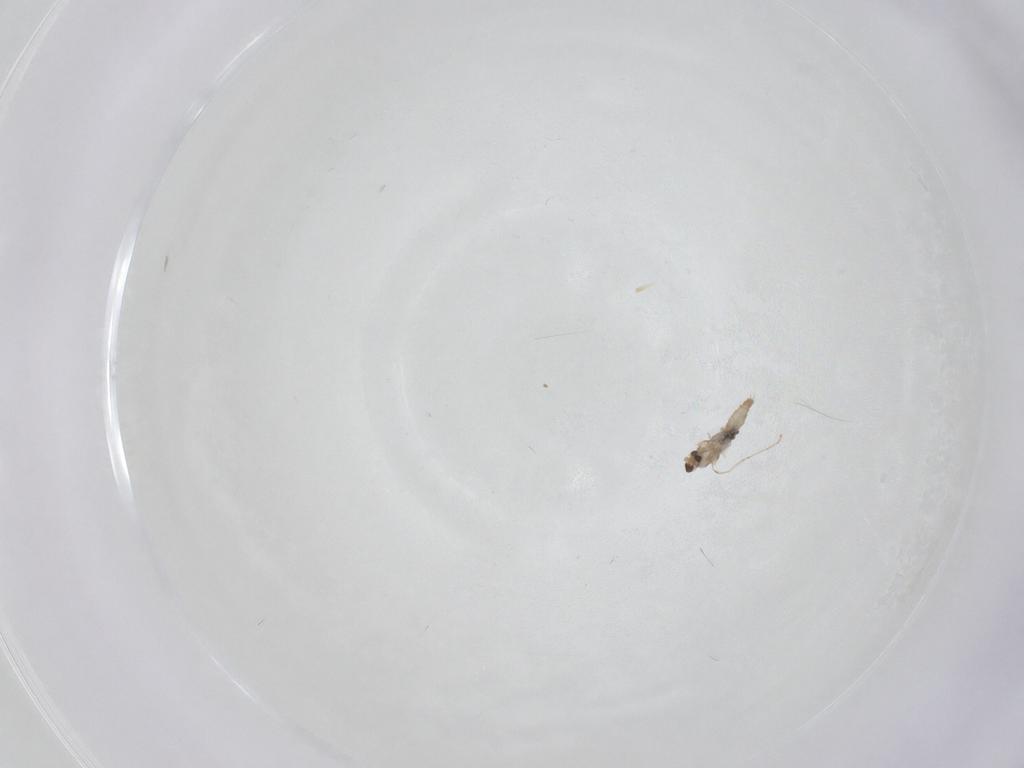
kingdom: Animalia
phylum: Arthropoda
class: Insecta
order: Diptera
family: Cecidomyiidae
